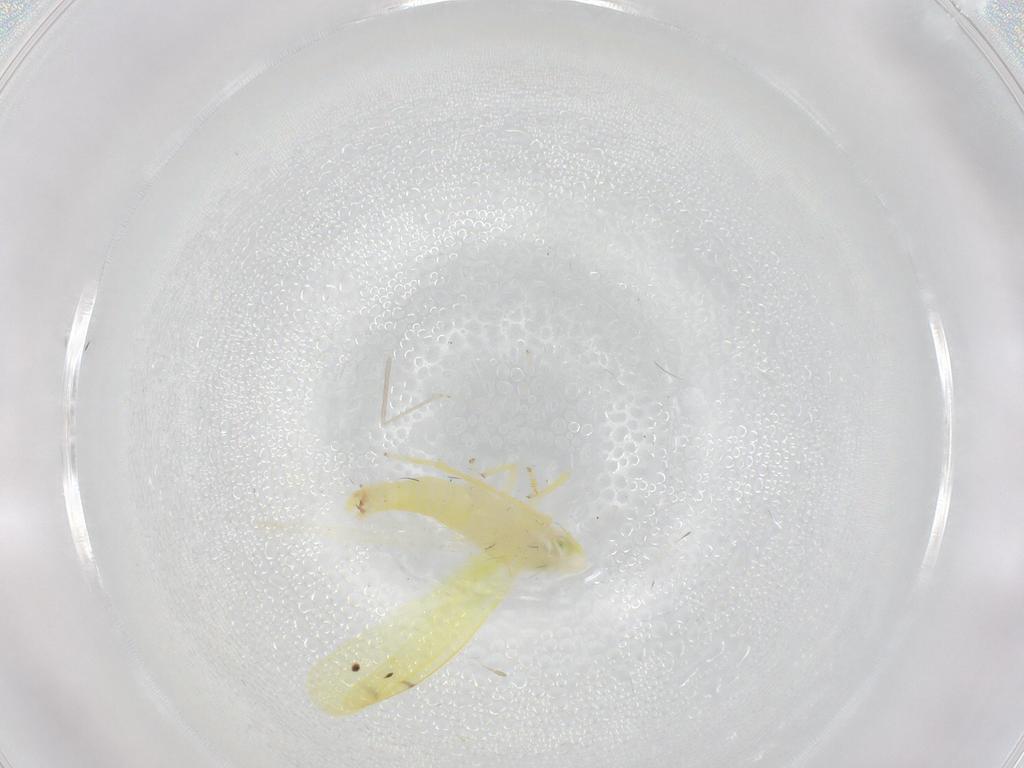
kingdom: Animalia
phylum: Arthropoda
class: Insecta
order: Hemiptera
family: Cicadellidae
